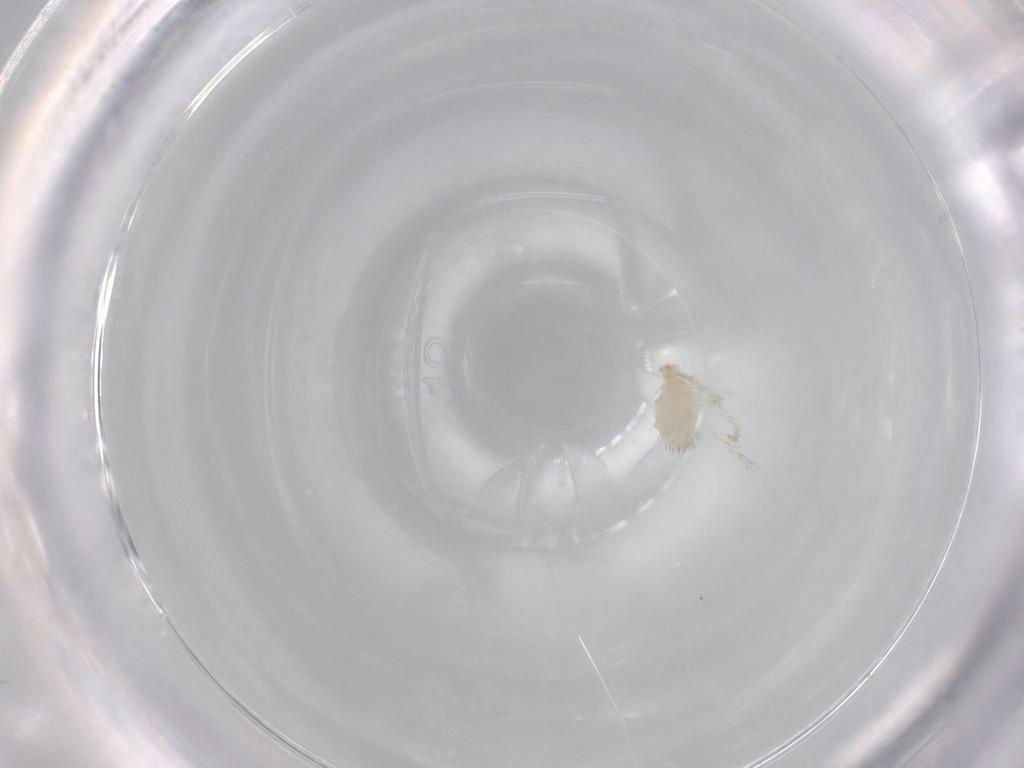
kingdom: Animalia
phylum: Arthropoda
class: Arachnida
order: Trombidiformes
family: Erythraeidae
